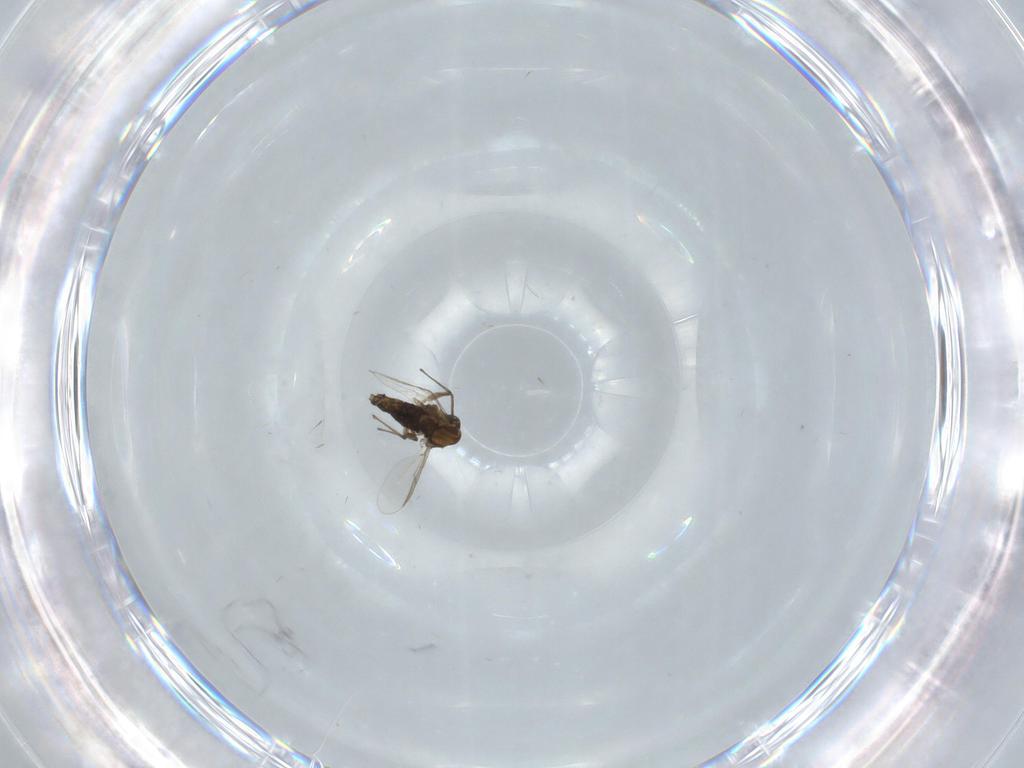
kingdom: Animalia
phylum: Arthropoda
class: Insecta
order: Diptera
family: Chironomidae
